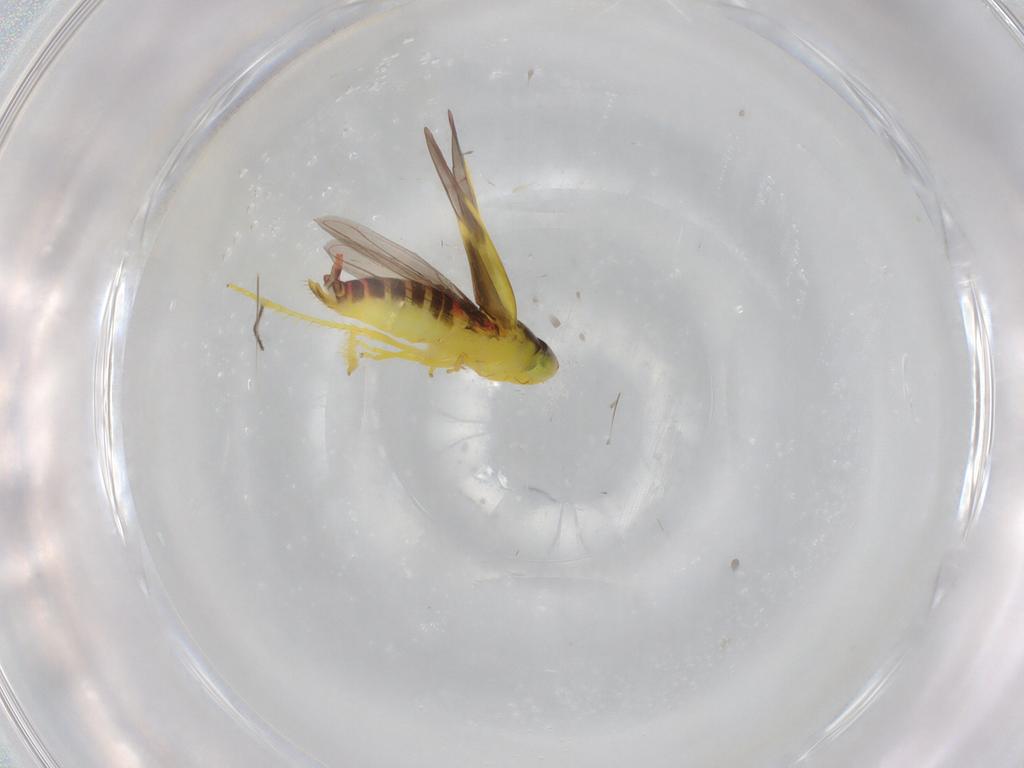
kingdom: Animalia
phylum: Arthropoda
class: Insecta
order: Hemiptera
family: Cicadellidae
